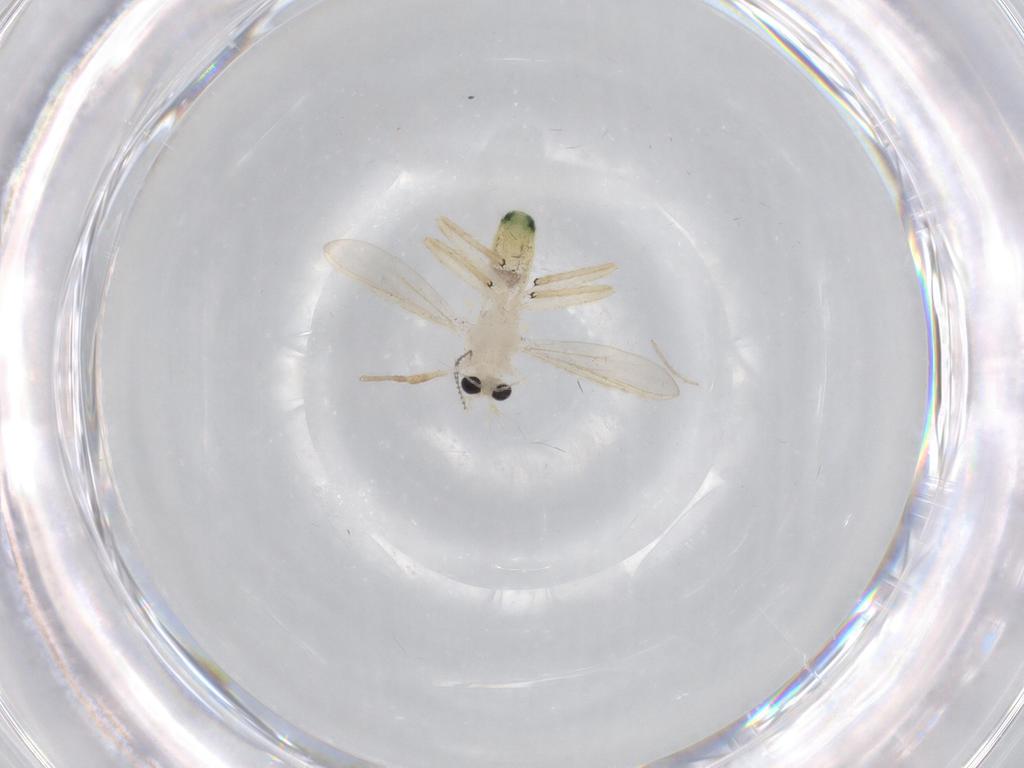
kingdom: Animalia
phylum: Arthropoda
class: Insecta
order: Diptera
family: Chironomidae
